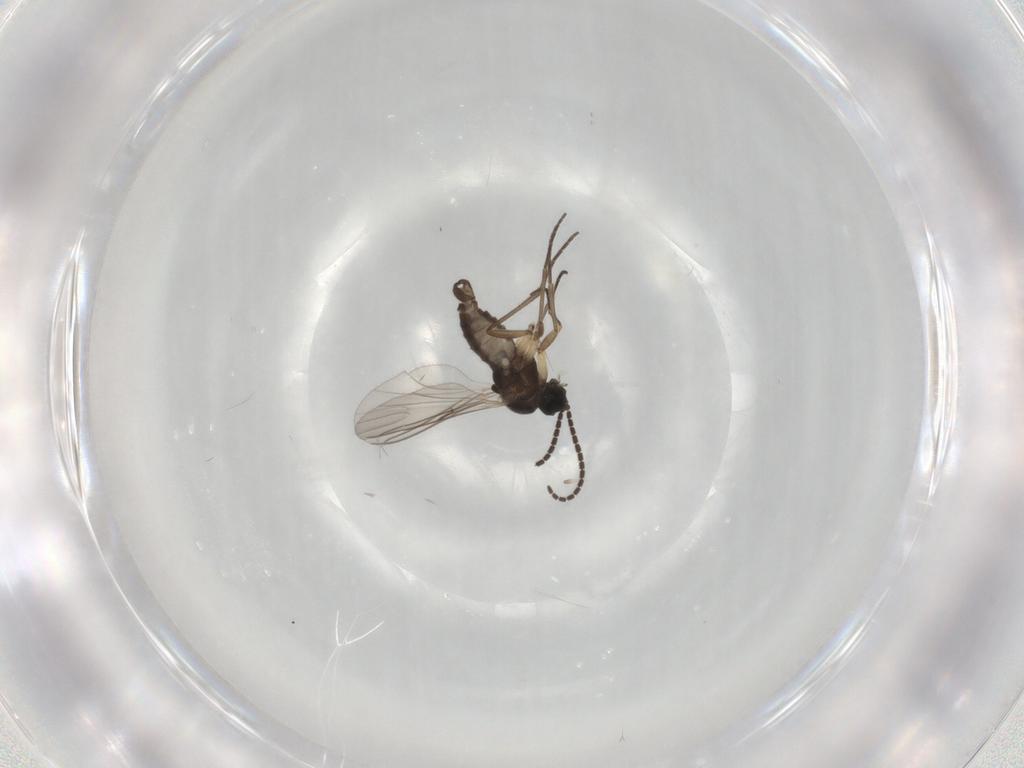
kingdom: Animalia
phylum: Arthropoda
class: Insecta
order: Diptera
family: Sciaridae
